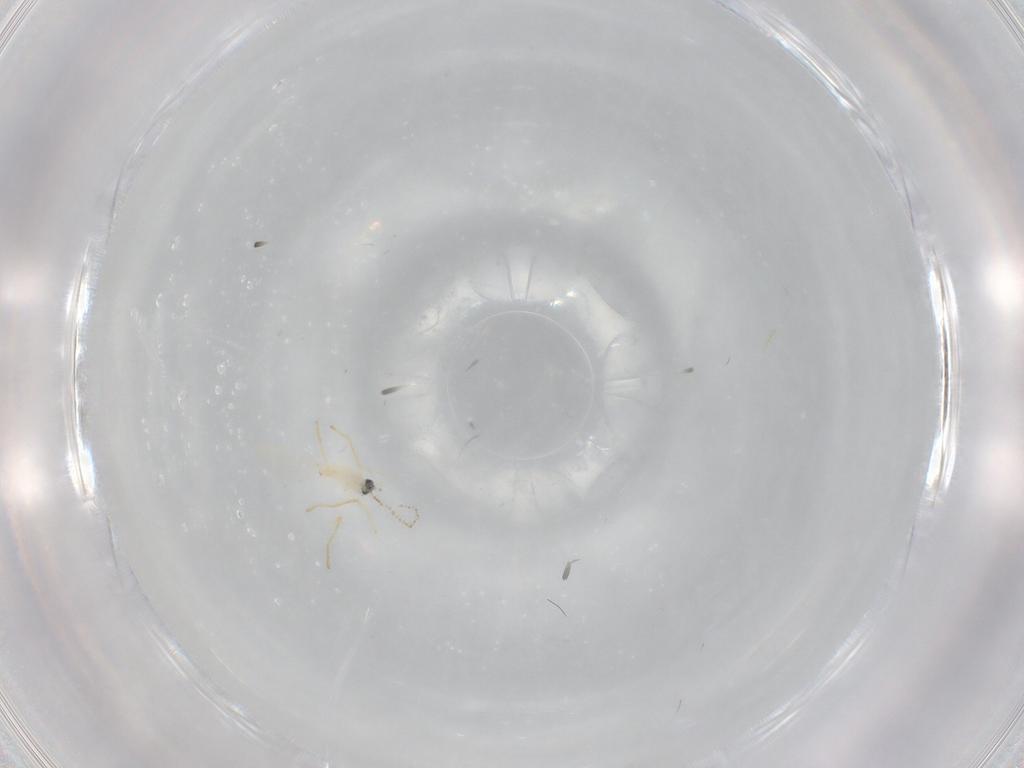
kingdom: Animalia
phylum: Arthropoda
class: Insecta
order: Diptera
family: Cecidomyiidae
